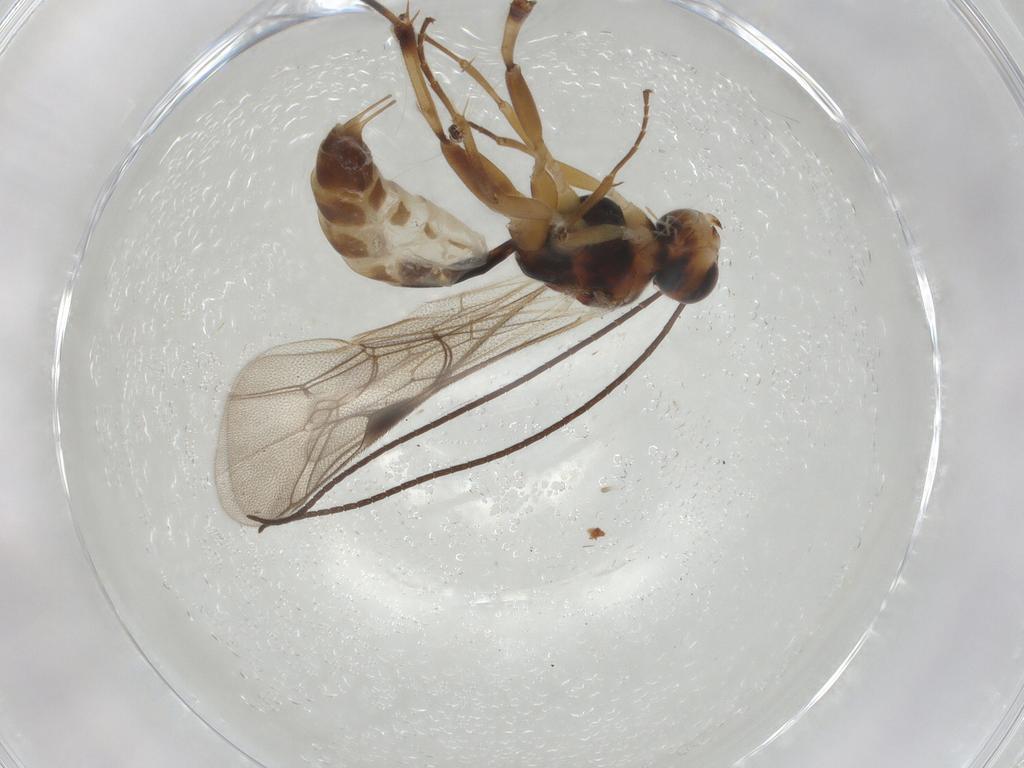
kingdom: Animalia
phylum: Arthropoda
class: Insecta
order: Hymenoptera
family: Ichneumonidae
